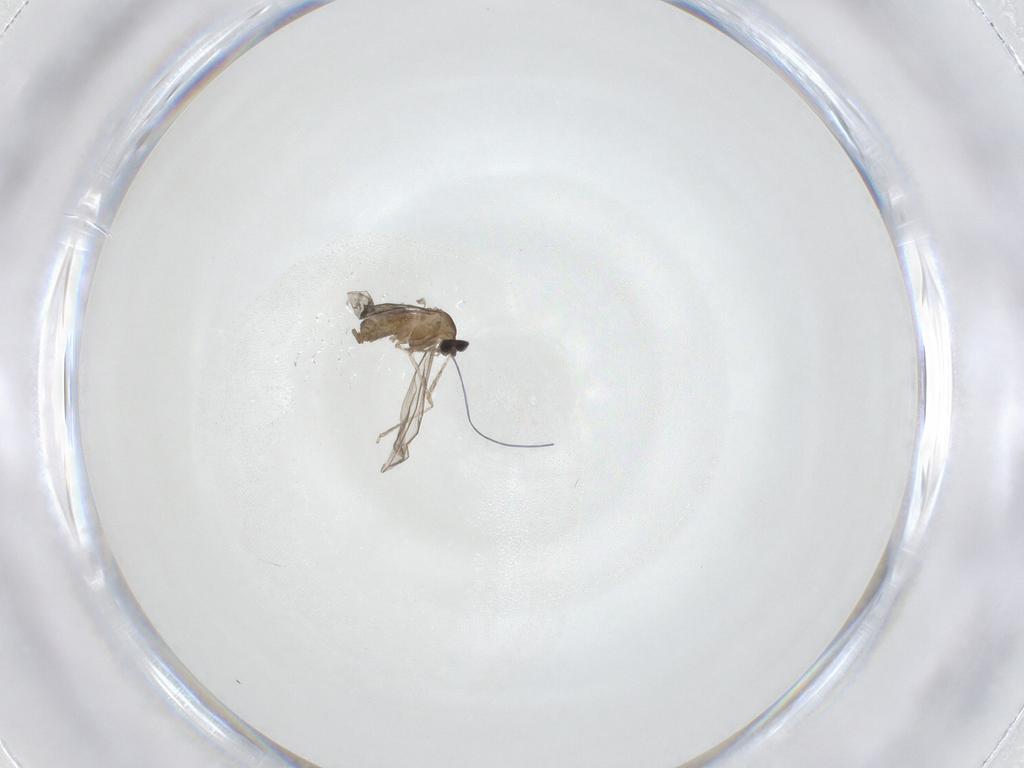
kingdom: Animalia
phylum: Arthropoda
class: Insecta
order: Diptera
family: Cecidomyiidae
